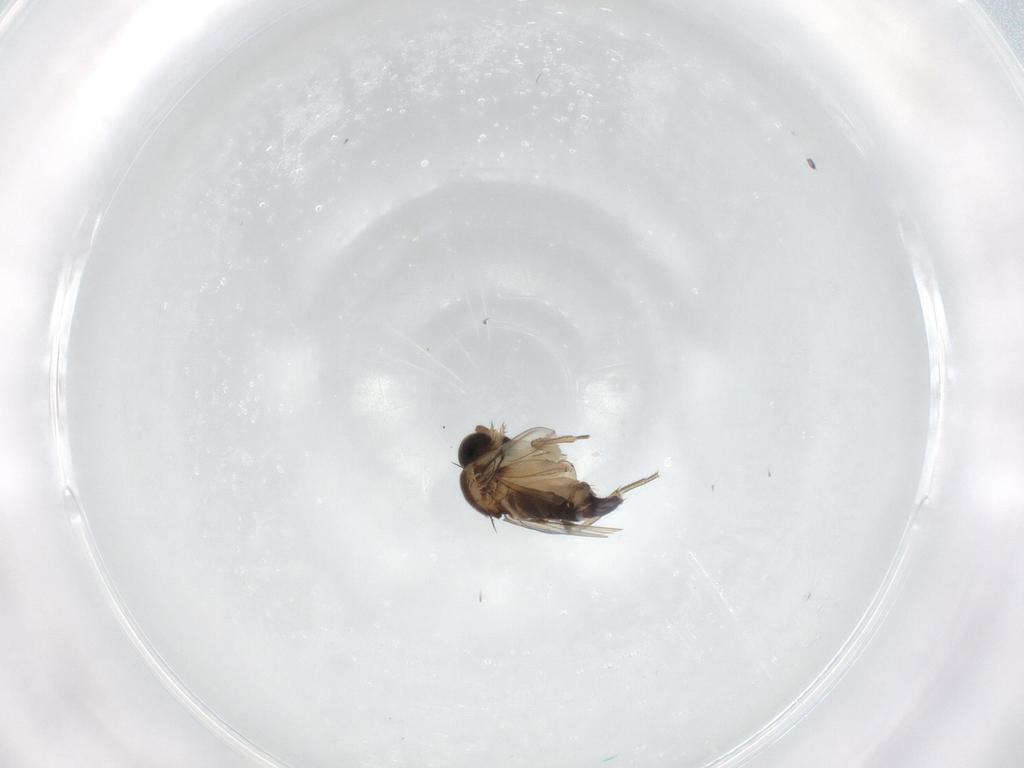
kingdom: Animalia
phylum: Arthropoda
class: Insecta
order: Diptera
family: Phoridae
